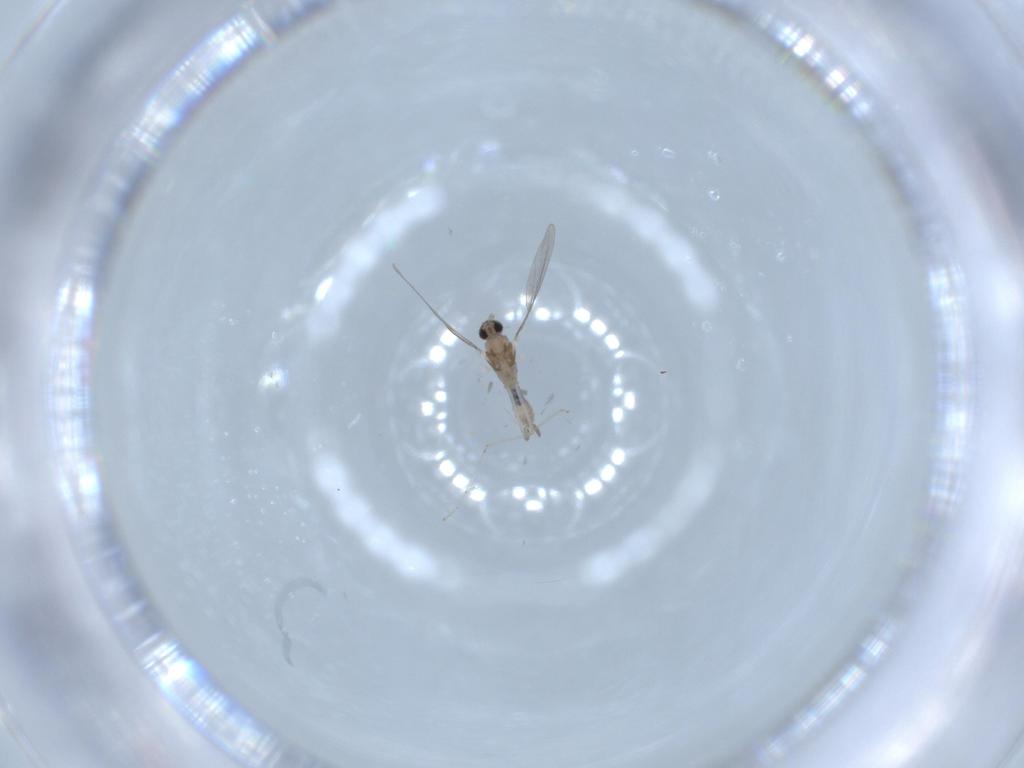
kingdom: Animalia
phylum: Arthropoda
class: Insecta
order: Diptera
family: Cecidomyiidae
